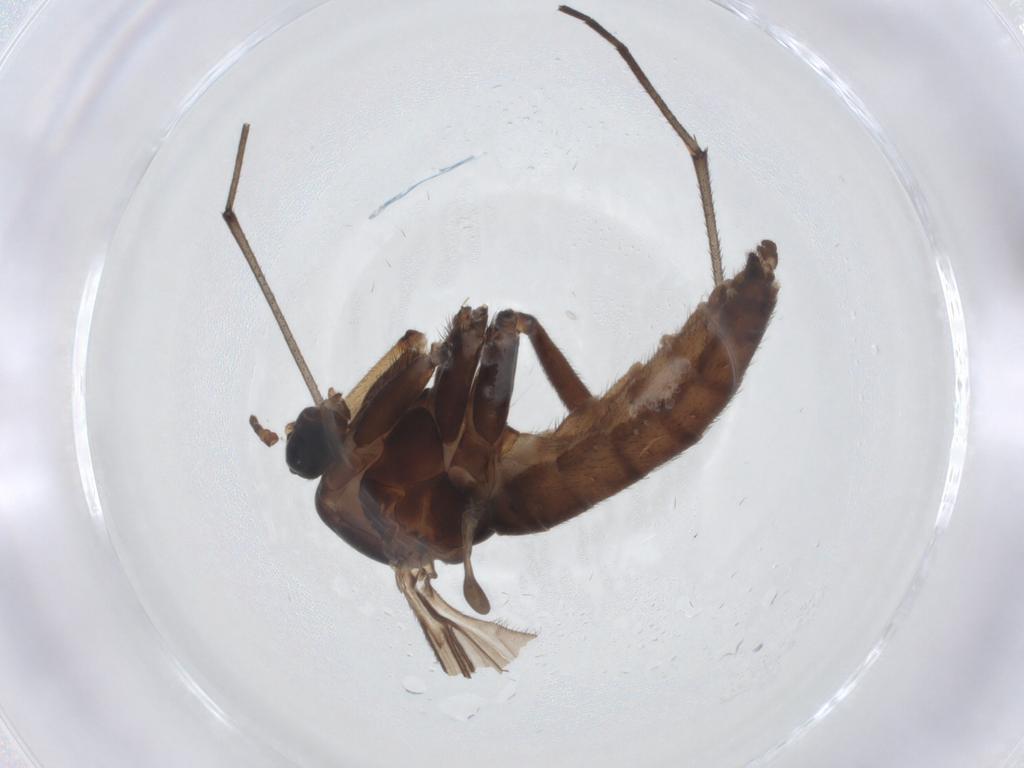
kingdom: Animalia
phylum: Arthropoda
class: Insecta
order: Diptera
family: Sciaridae
